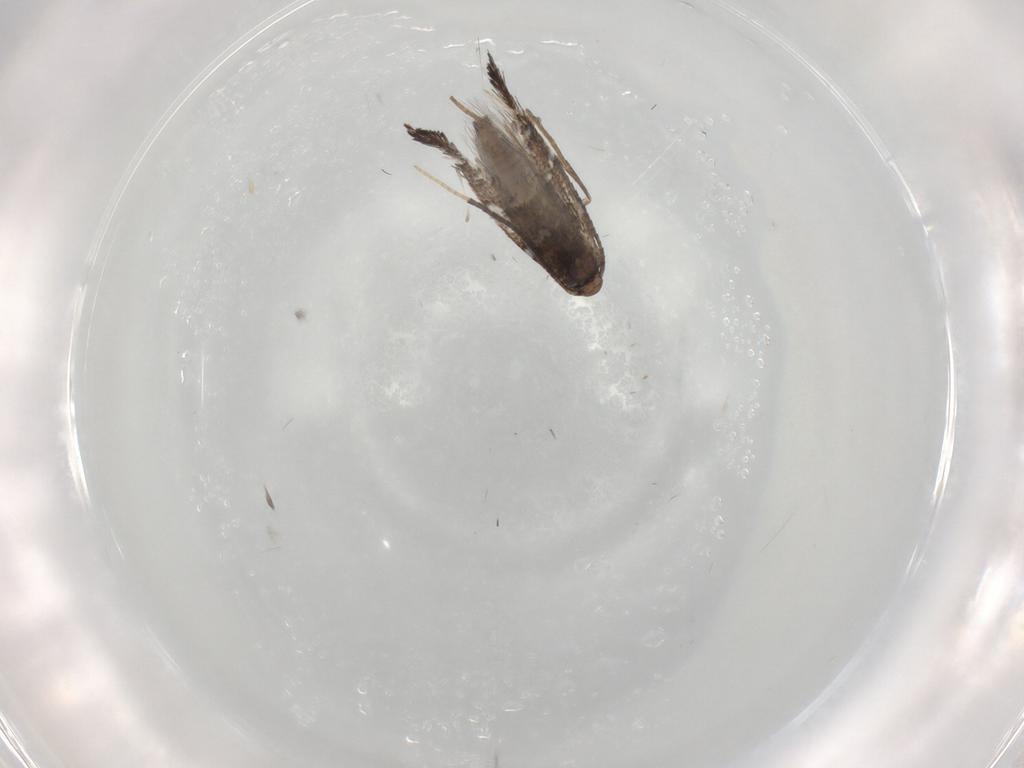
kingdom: Animalia
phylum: Arthropoda
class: Insecta
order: Lepidoptera
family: Gracillariidae
